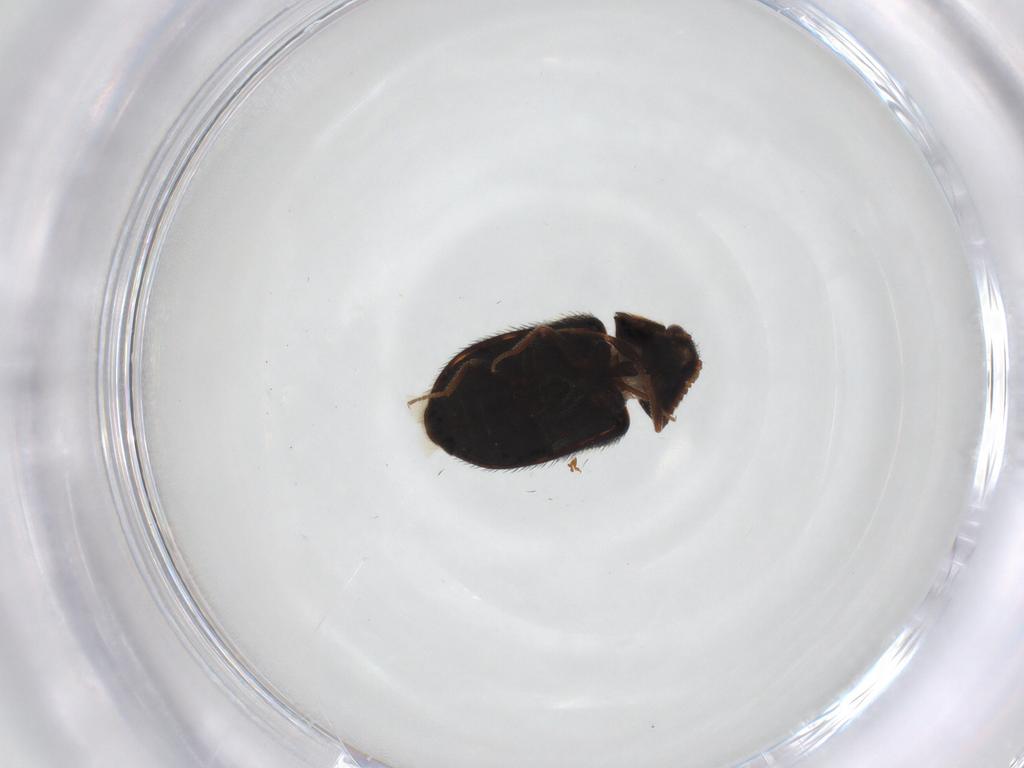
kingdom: Animalia
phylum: Arthropoda
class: Insecta
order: Coleoptera
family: Dermestidae
